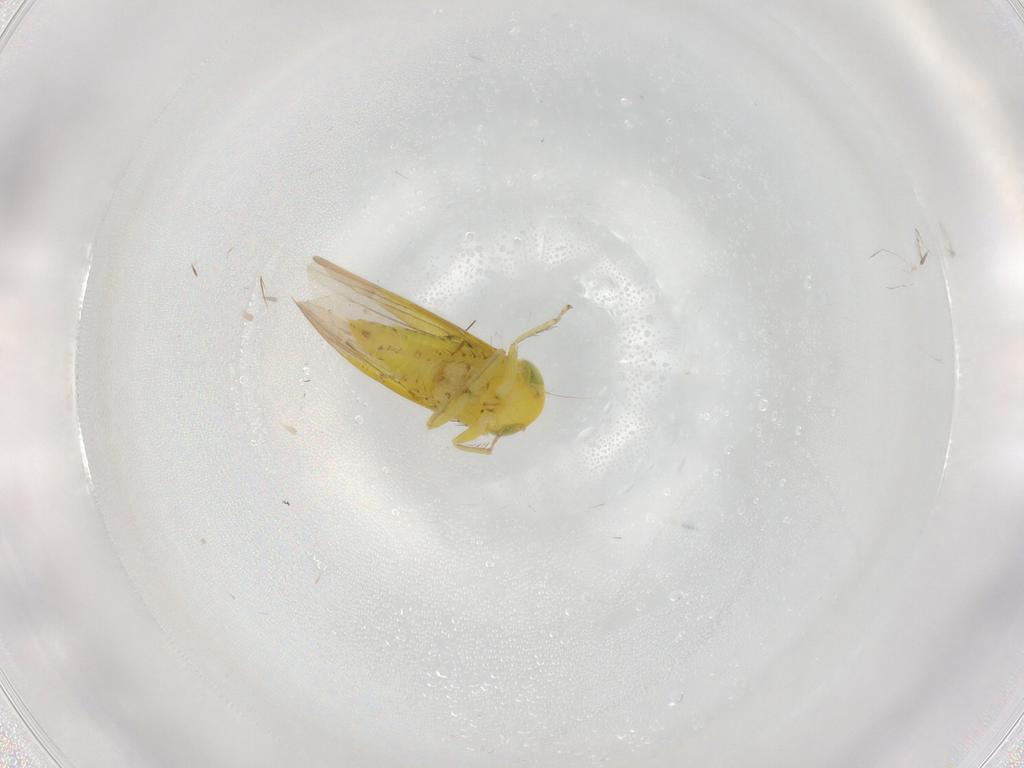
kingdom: Animalia
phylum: Arthropoda
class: Insecta
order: Hemiptera
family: Cicadellidae
